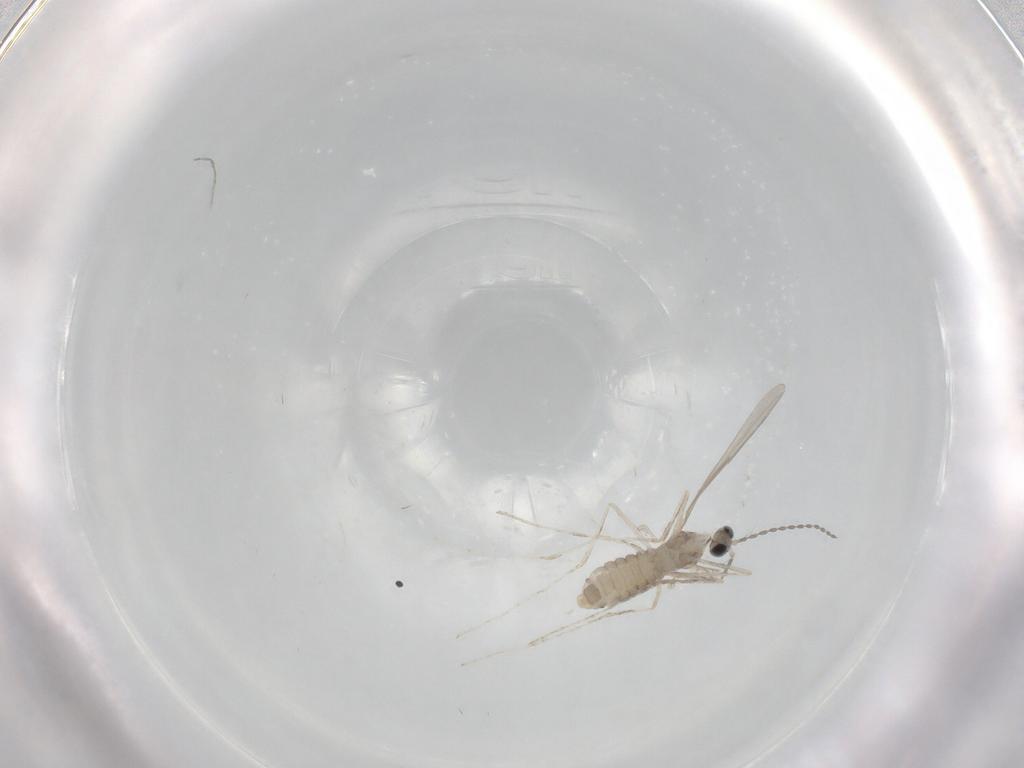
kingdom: Animalia
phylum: Arthropoda
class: Insecta
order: Diptera
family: Cecidomyiidae
